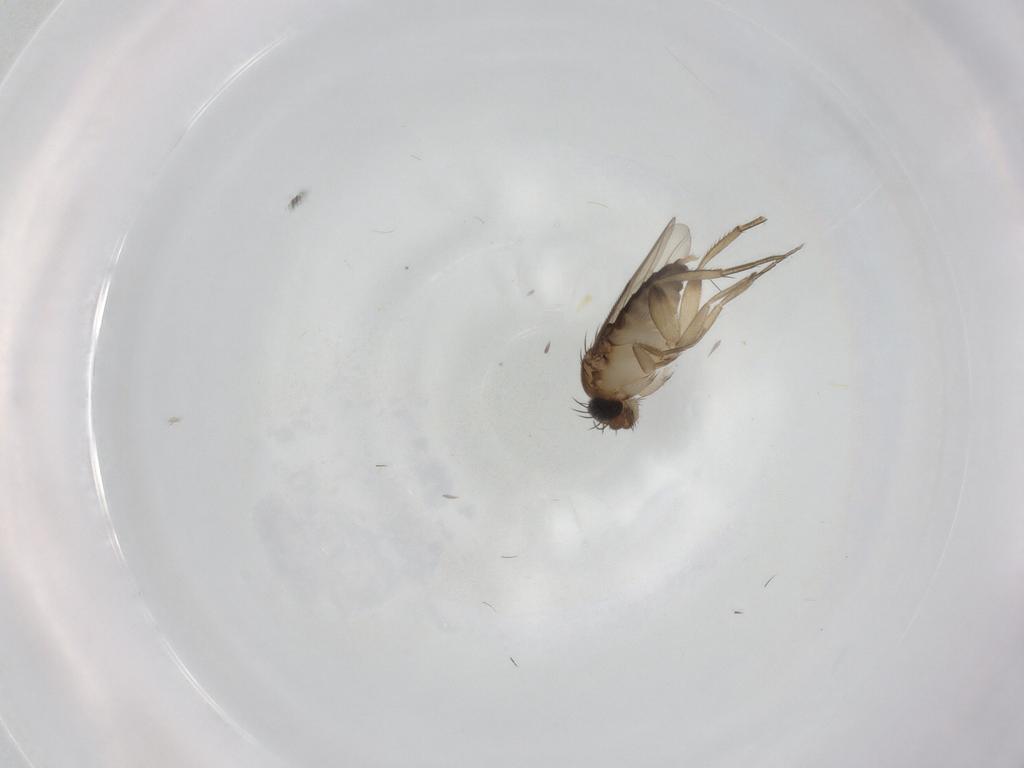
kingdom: Animalia
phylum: Arthropoda
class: Insecta
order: Diptera
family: Phoridae
